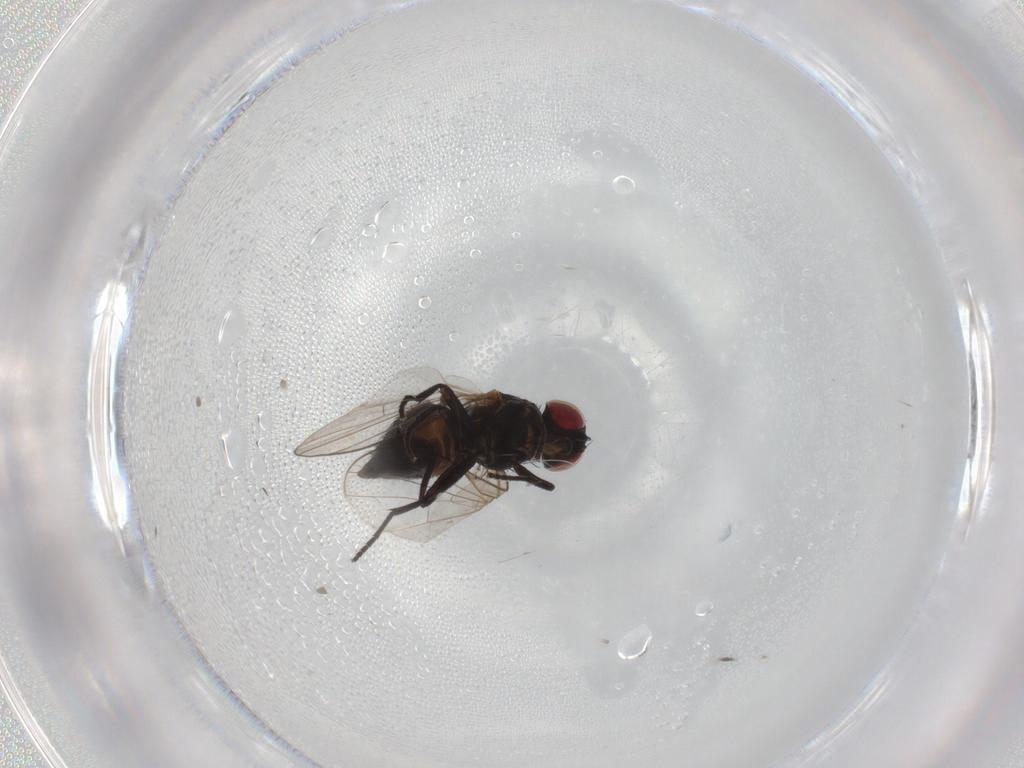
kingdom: Animalia
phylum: Arthropoda
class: Insecta
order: Diptera
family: Agromyzidae
